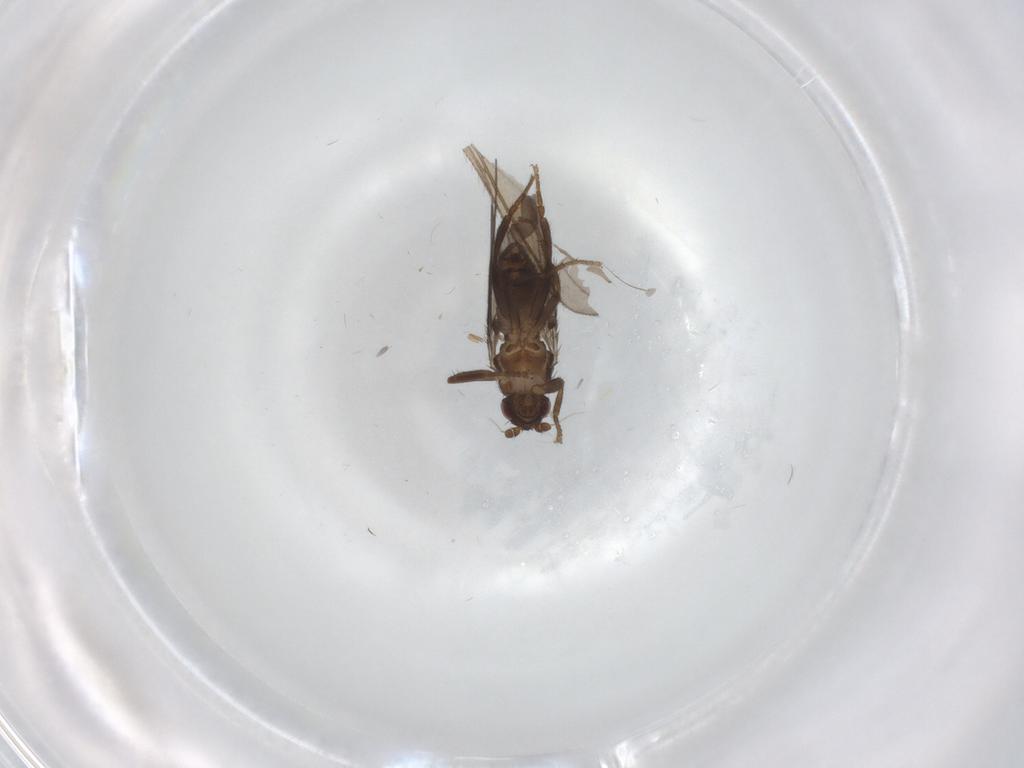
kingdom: Animalia
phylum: Arthropoda
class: Insecta
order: Diptera
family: Sphaeroceridae
